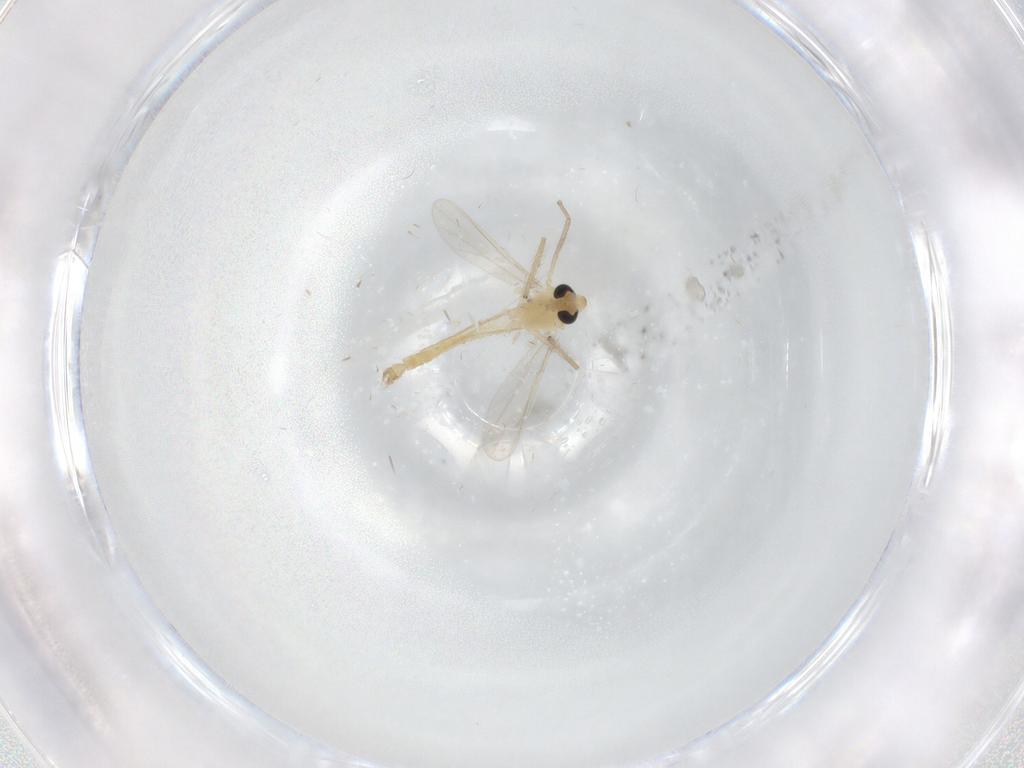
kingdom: Animalia
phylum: Arthropoda
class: Insecta
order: Diptera
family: Chironomidae
